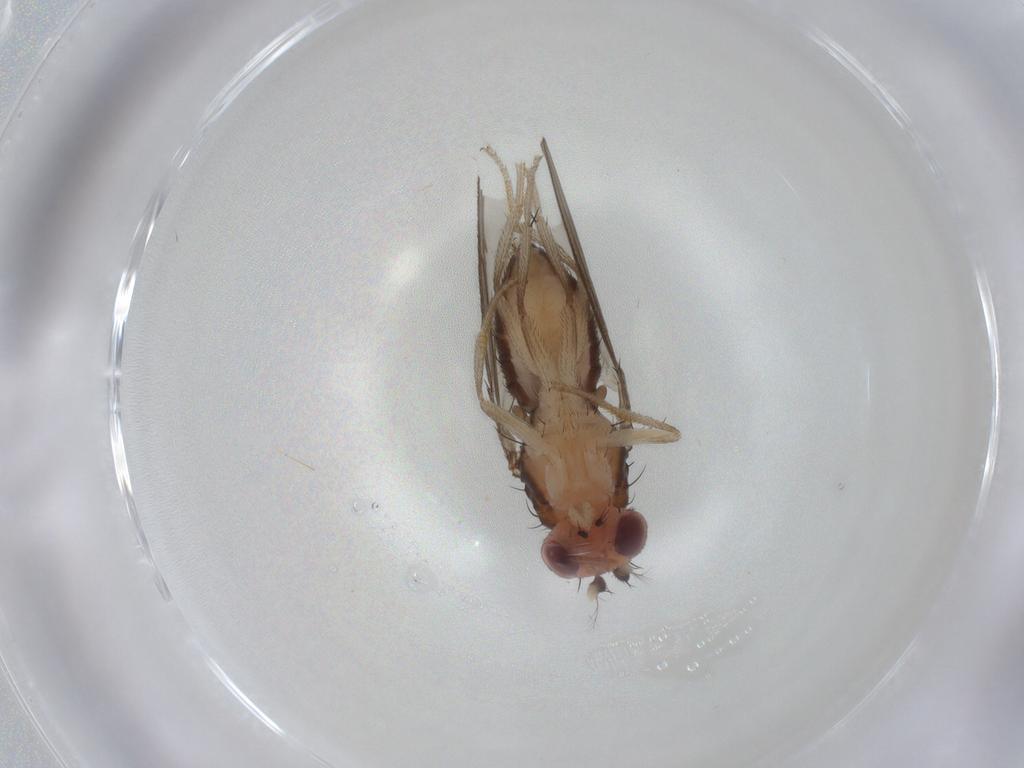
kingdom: Animalia
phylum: Arthropoda
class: Insecta
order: Diptera
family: Drosophilidae
